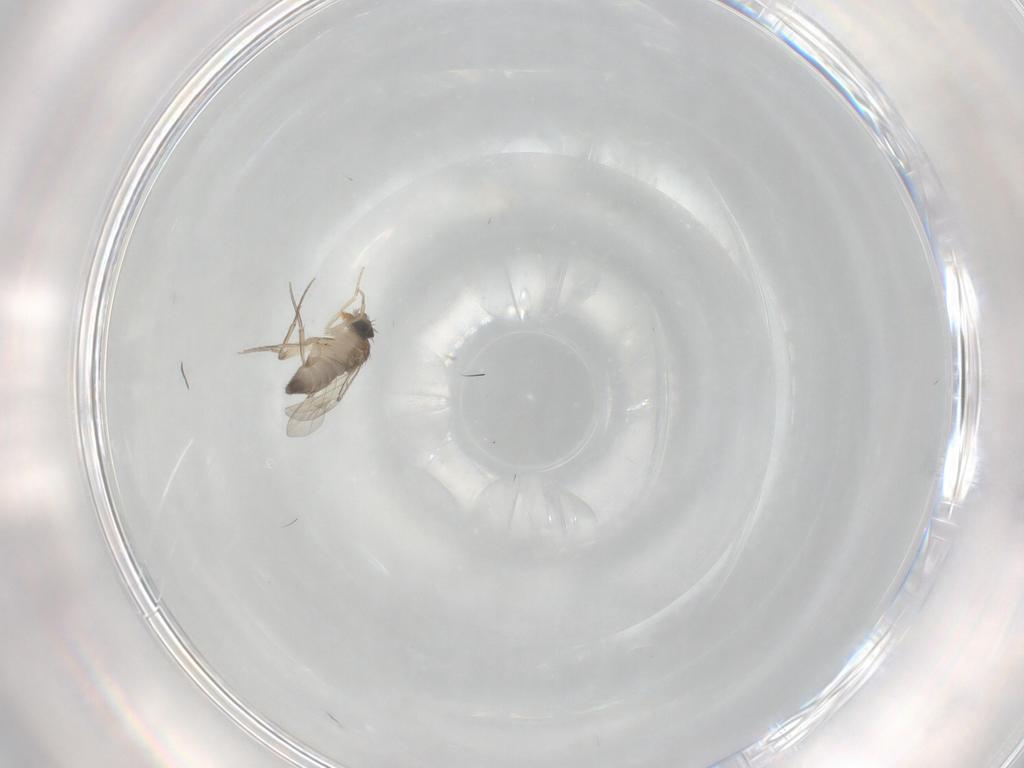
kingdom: Animalia
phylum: Arthropoda
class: Insecta
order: Diptera
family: Phoridae
